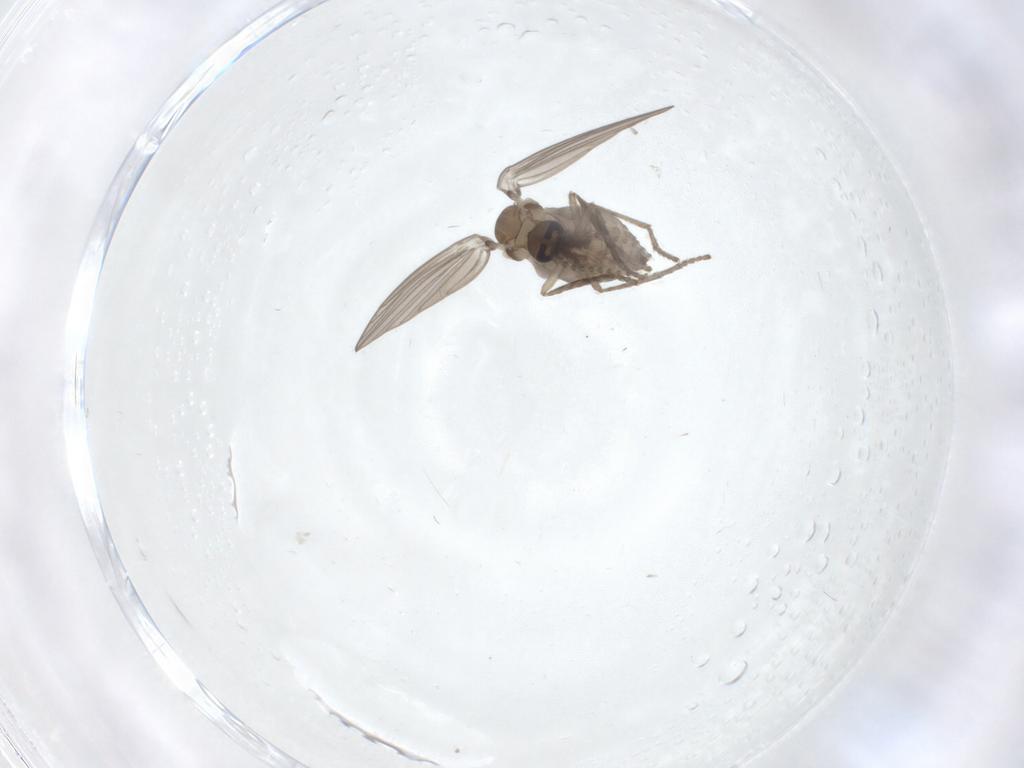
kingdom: Animalia
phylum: Arthropoda
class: Insecta
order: Diptera
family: Psychodidae
